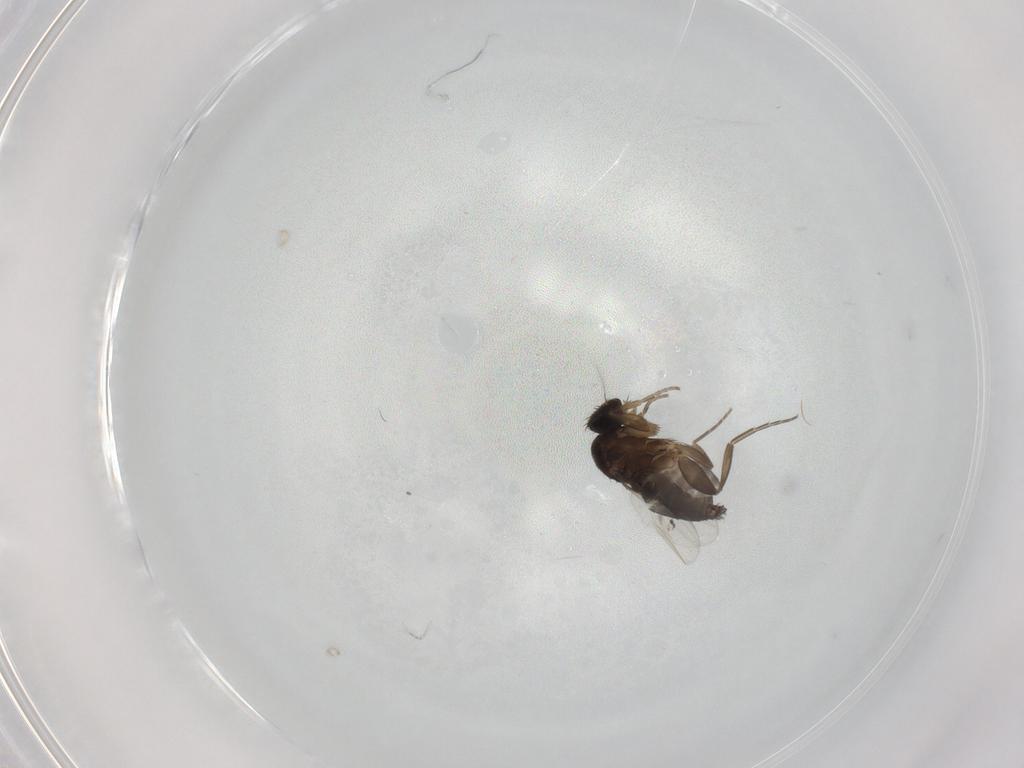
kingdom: Animalia
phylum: Arthropoda
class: Insecta
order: Diptera
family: Phoridae
